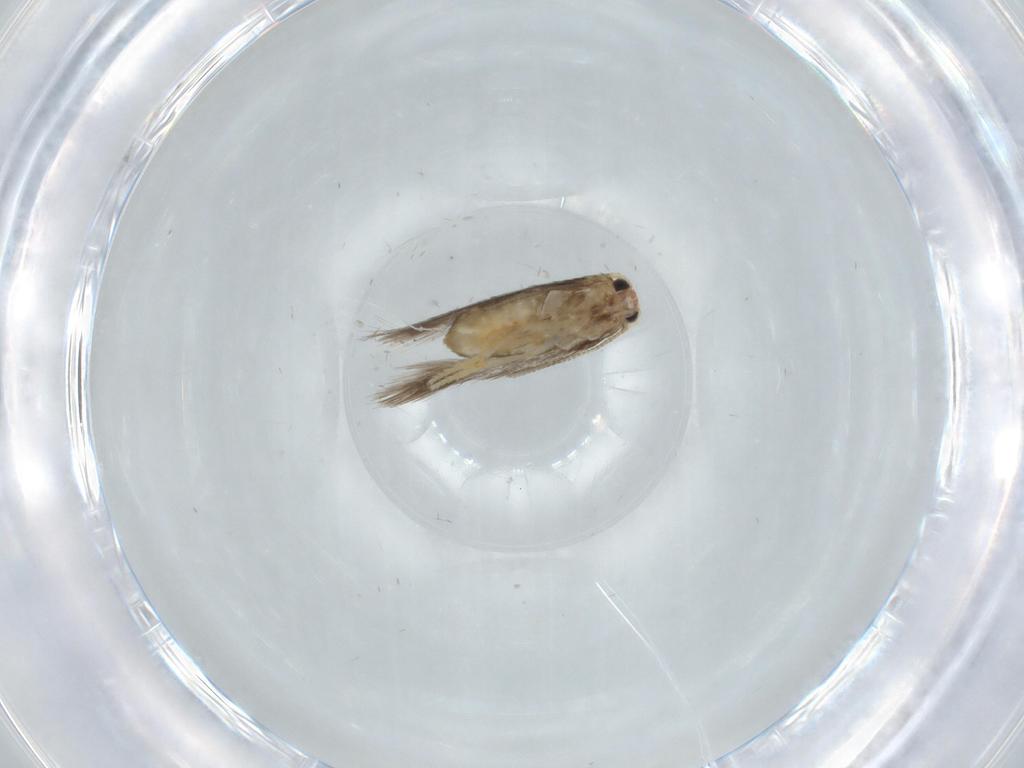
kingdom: Animalia
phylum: Arthropoda
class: Insecta
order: Lepidoptera
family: Nepticulidae
